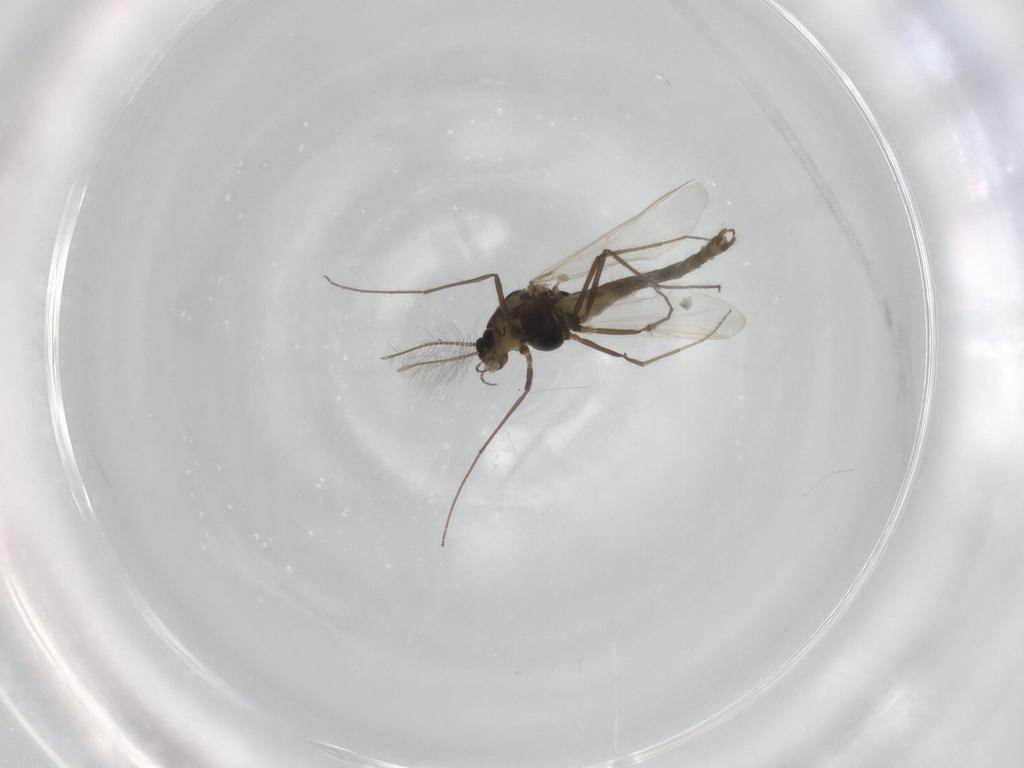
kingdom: Animalia
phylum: Arthropoda
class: Insecta
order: Diptera
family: Chironomidae
